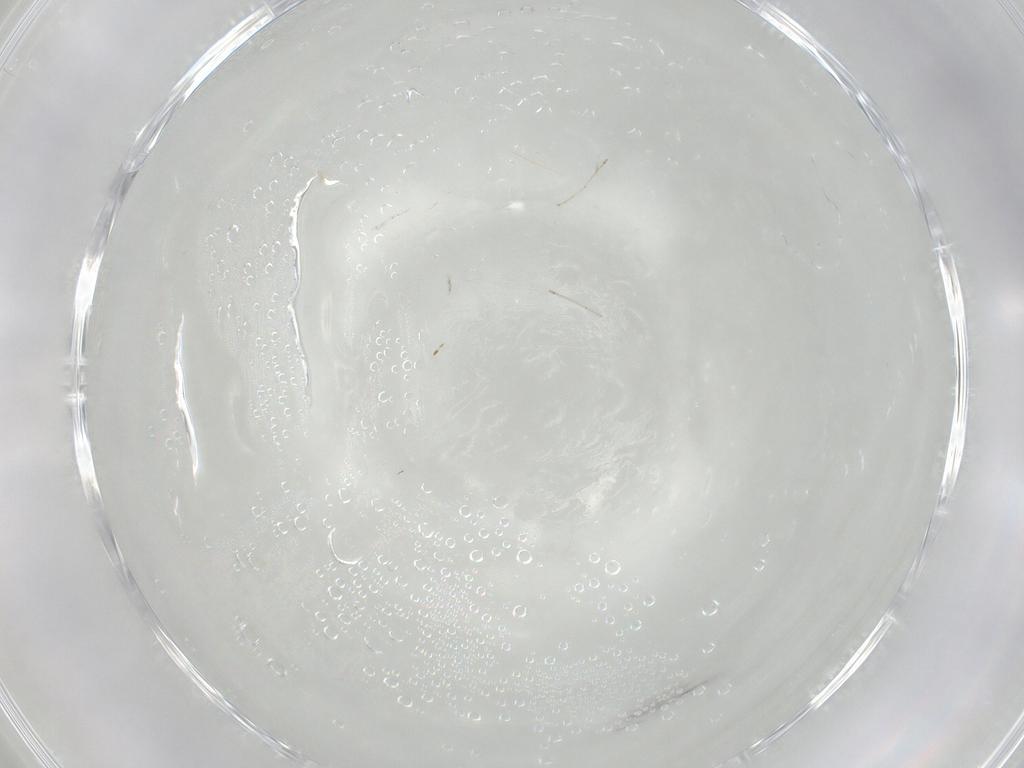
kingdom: Animalia
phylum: Arthropoda
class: Insecta
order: Diptera
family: Cecidomyiidae
